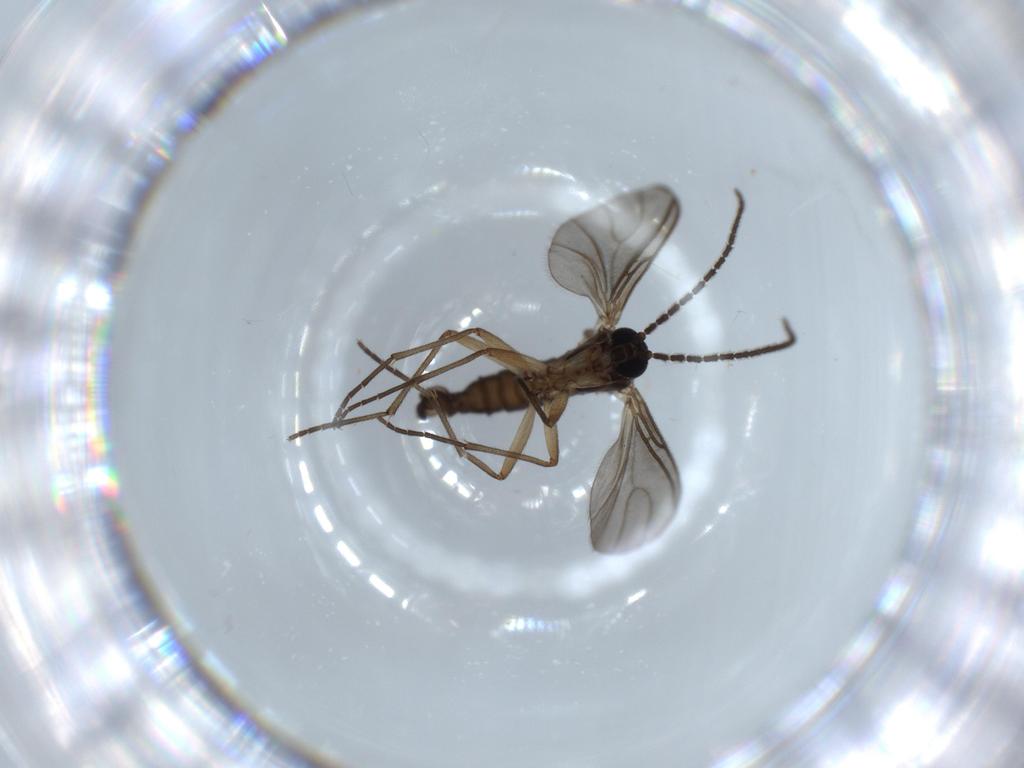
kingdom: Animalia
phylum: Arthropoda
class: Insecta
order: Diptera
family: Sciaridae
